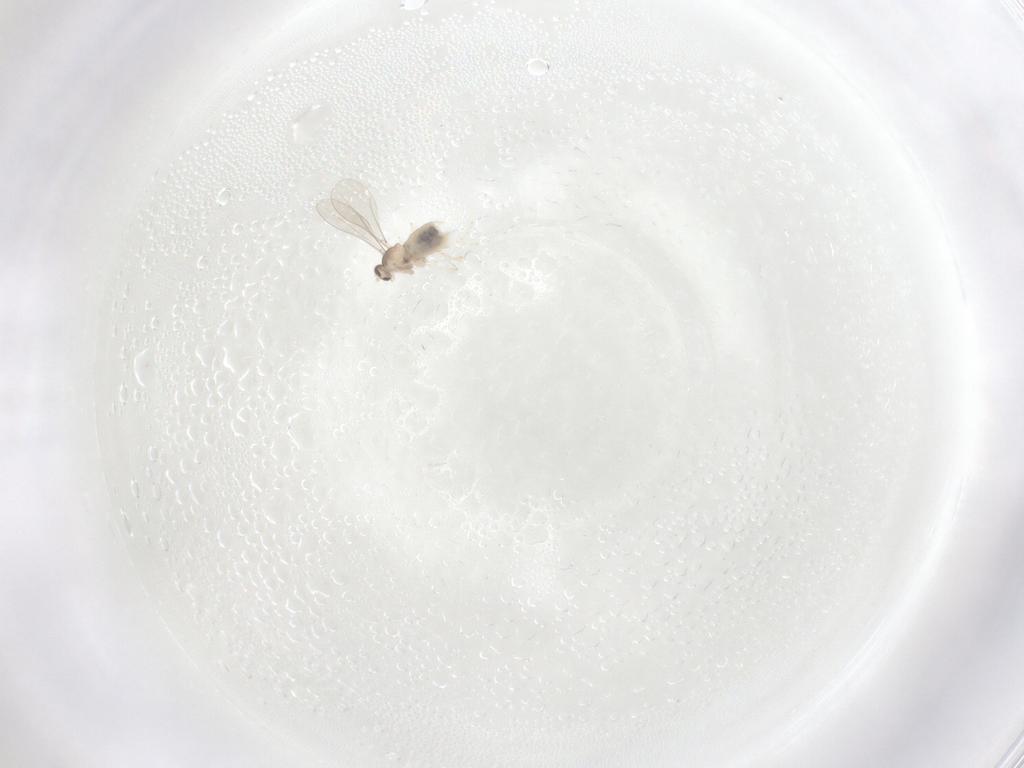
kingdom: Animalia
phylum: Arthropoda
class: Insecta
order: Diptera
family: Cecidomyiidae
